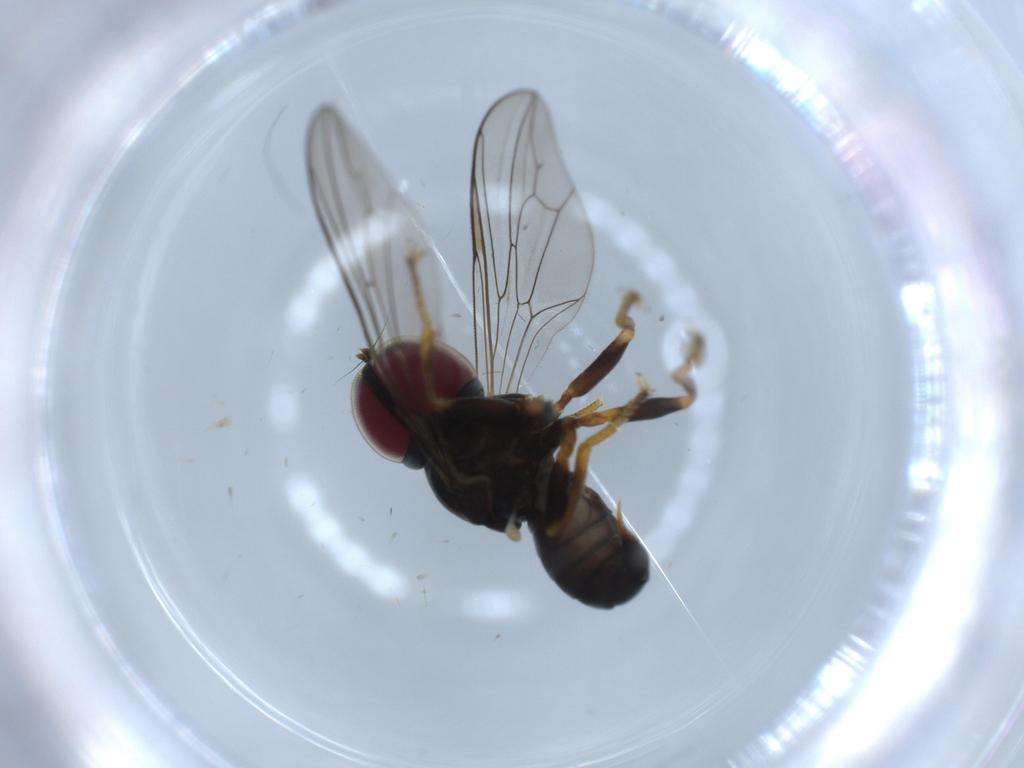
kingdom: Animalia
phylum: Arthropoda
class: Insecta
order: Diptera
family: Pipunculidae
